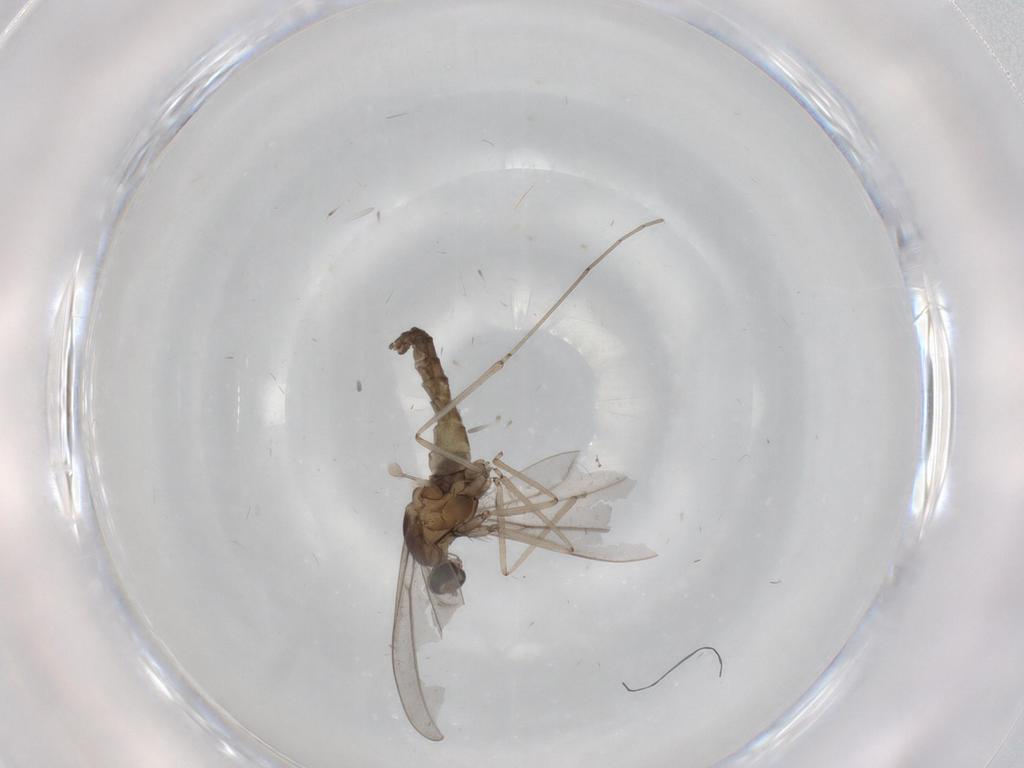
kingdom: Animalia
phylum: Arthropoda
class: Insecta
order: Diptera
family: Cecidomyiidae
